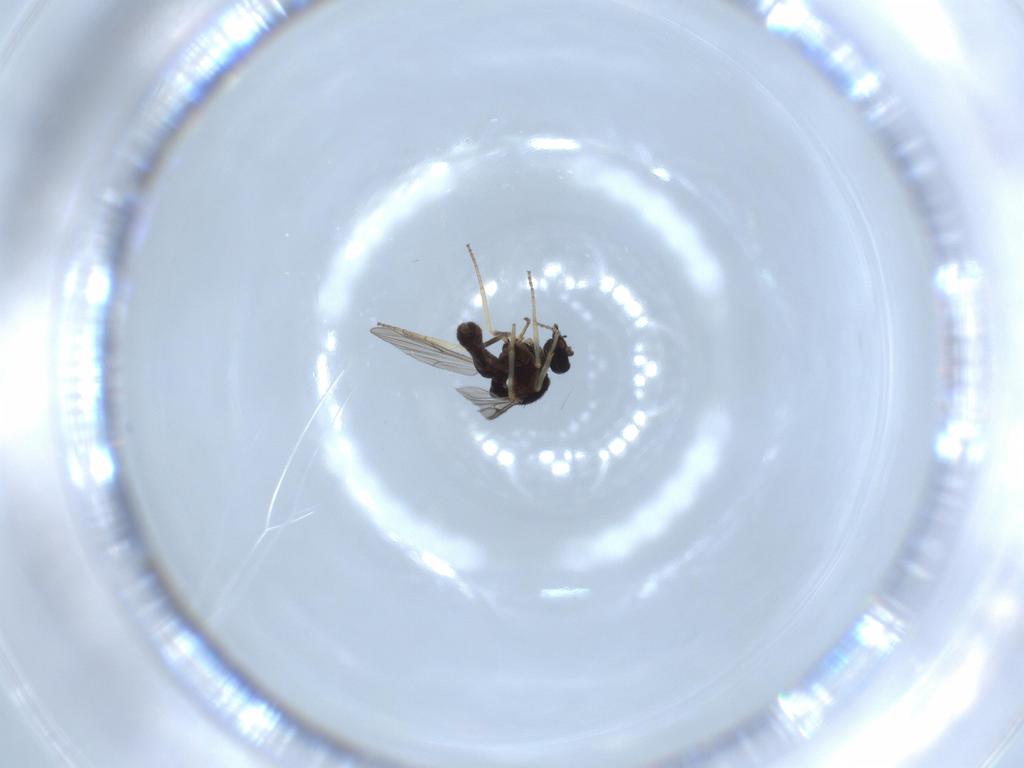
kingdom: Animalia
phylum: Arthropoda
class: Insecta
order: Diptera
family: Ceratopogonidae
